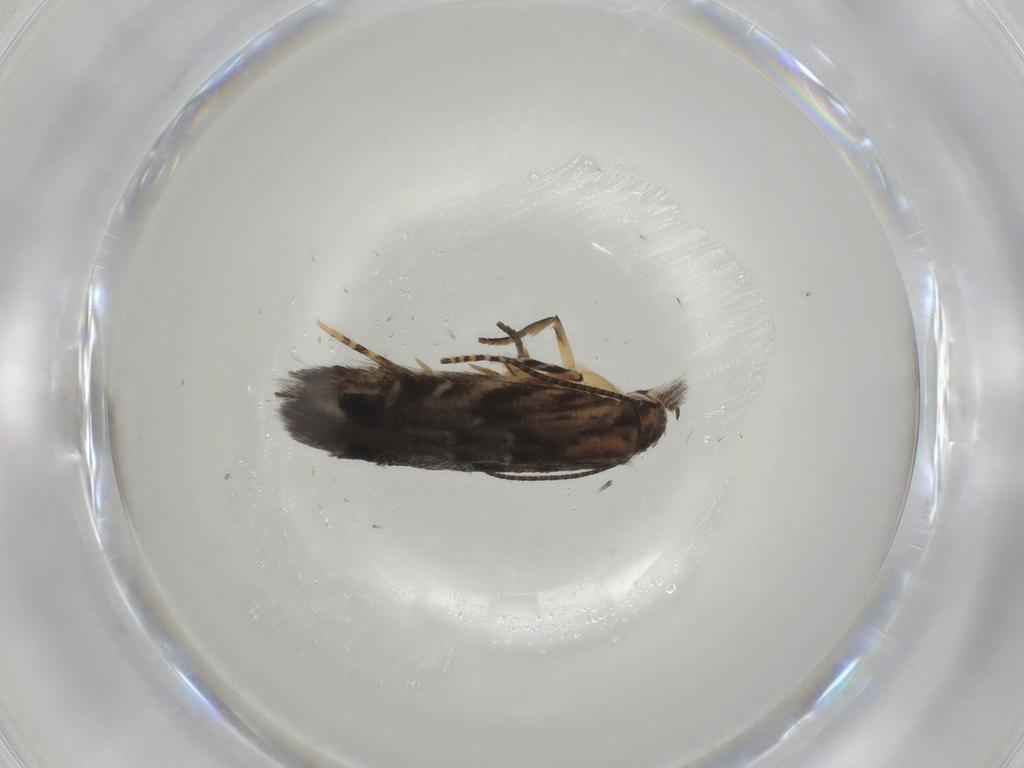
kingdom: Animalia
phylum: Arthropoda
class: Insecta
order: Lepidoptera
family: Elachistidae
